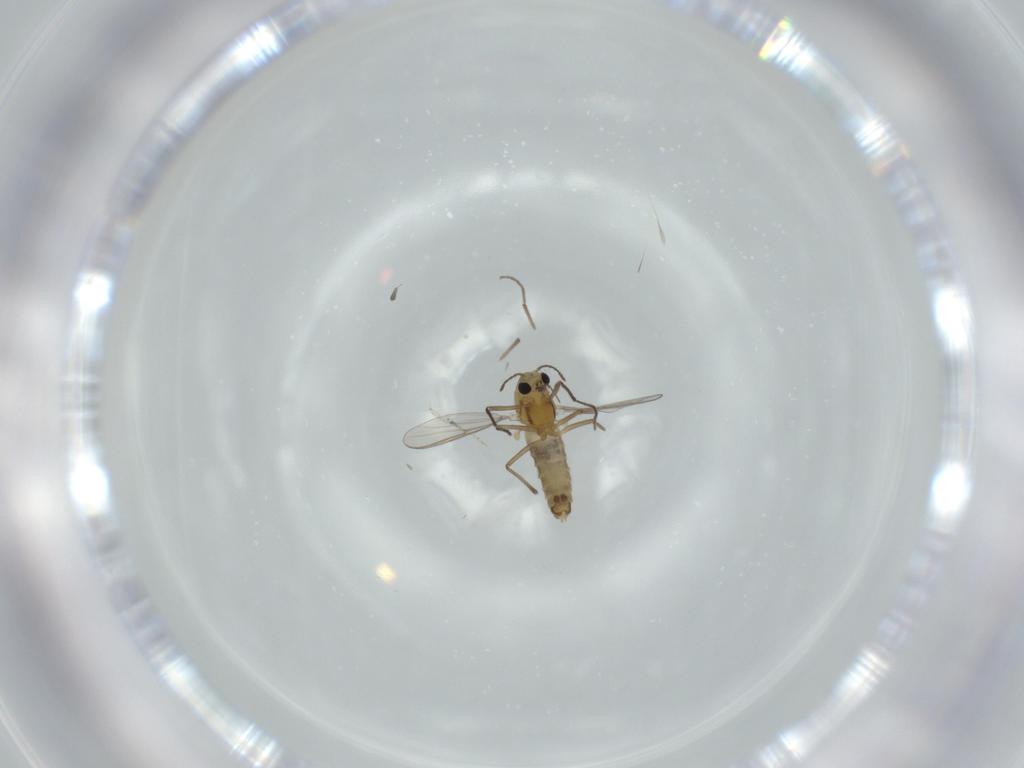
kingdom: Animalia
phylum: Arthropoda
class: Insecta
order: Diptera
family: Chironomidae
